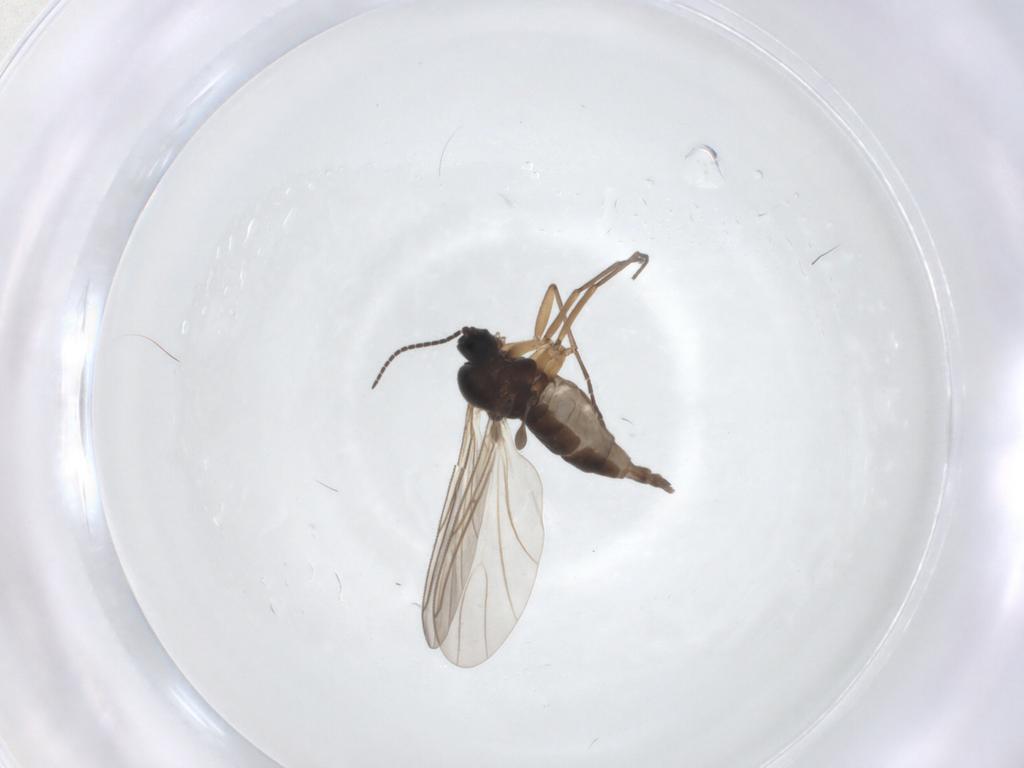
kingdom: Animalia
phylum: Arthropoda
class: Insecta
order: Diptera
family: Sciaridae
